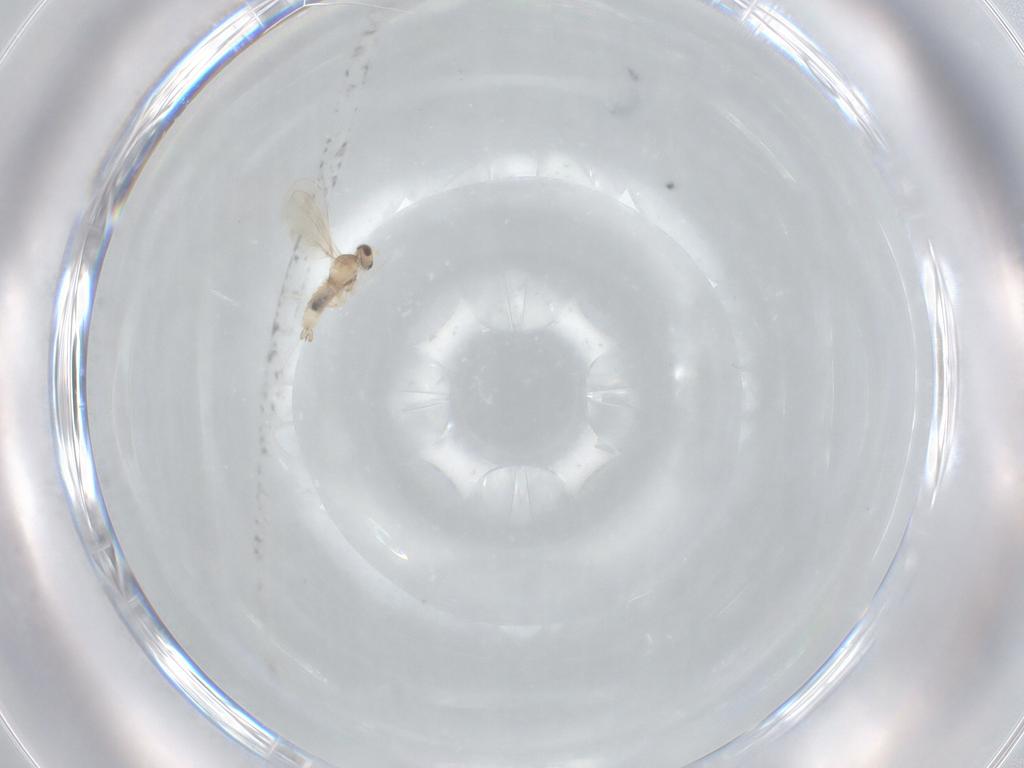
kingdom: Animalia
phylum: Arthropoda
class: Insecta
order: Diptera
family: Cecidomyiidae
